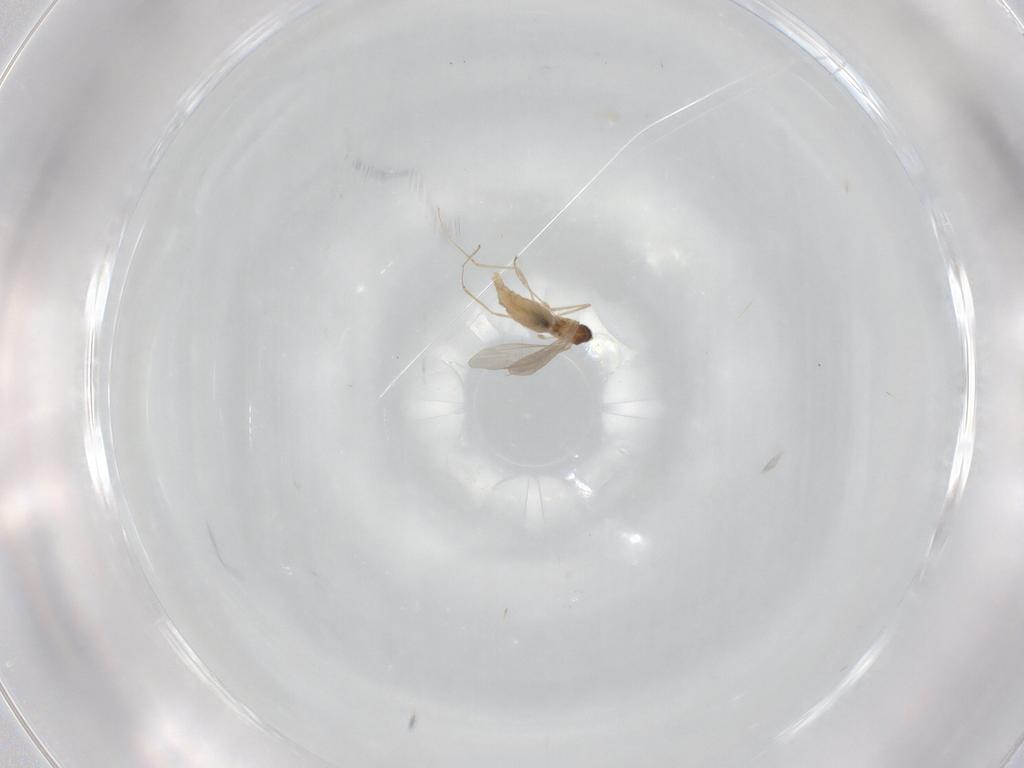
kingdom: Animalia
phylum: Arthropoda
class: Insecta
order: Diptera
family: Cecidomyiidae
